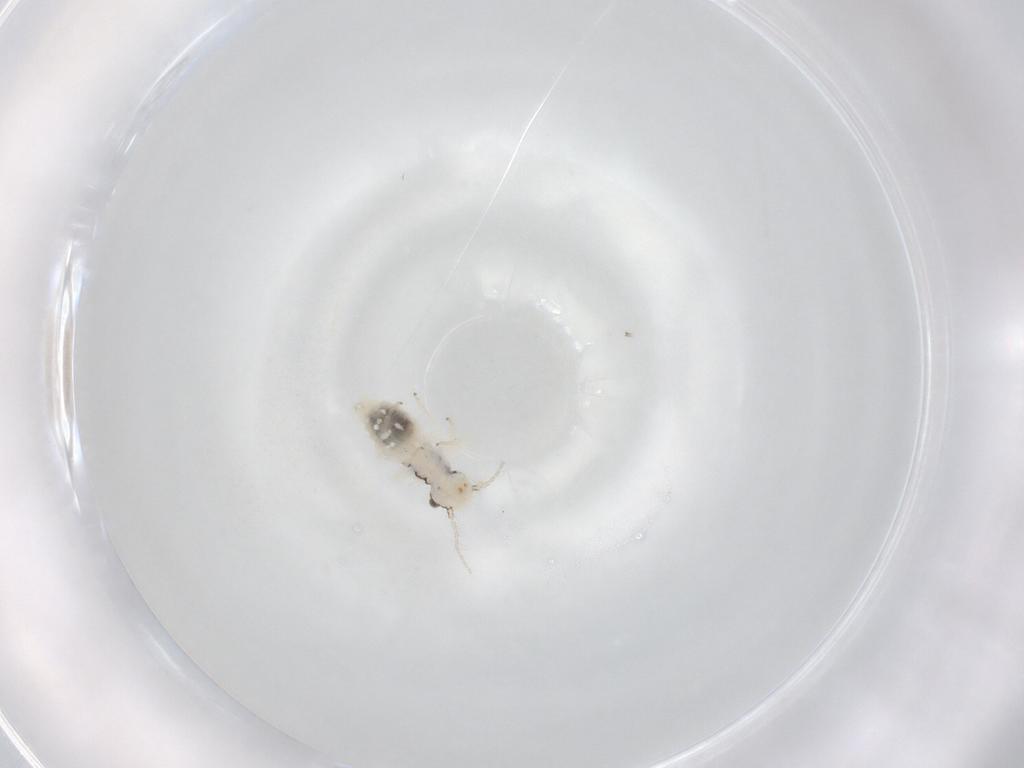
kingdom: Animalia
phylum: Arthropoda
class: Insecta
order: Psocodea
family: Philotarsidae
